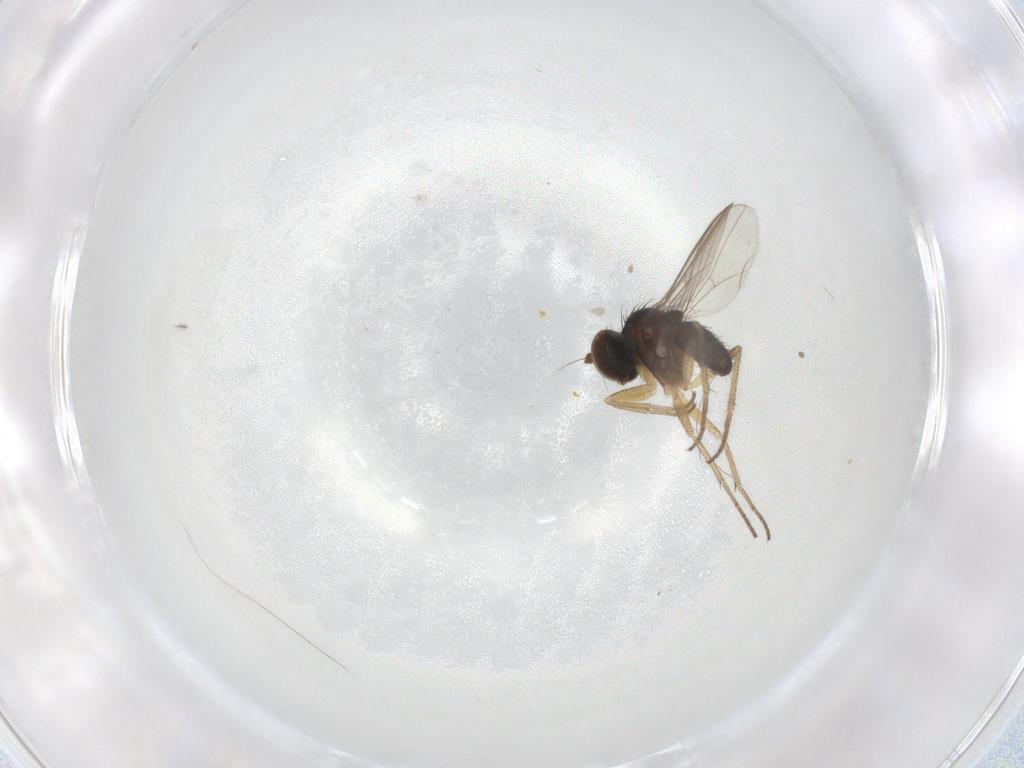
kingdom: Animalia
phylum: Arthropoda
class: Insecta
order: Diptera
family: Dolichopodidae
